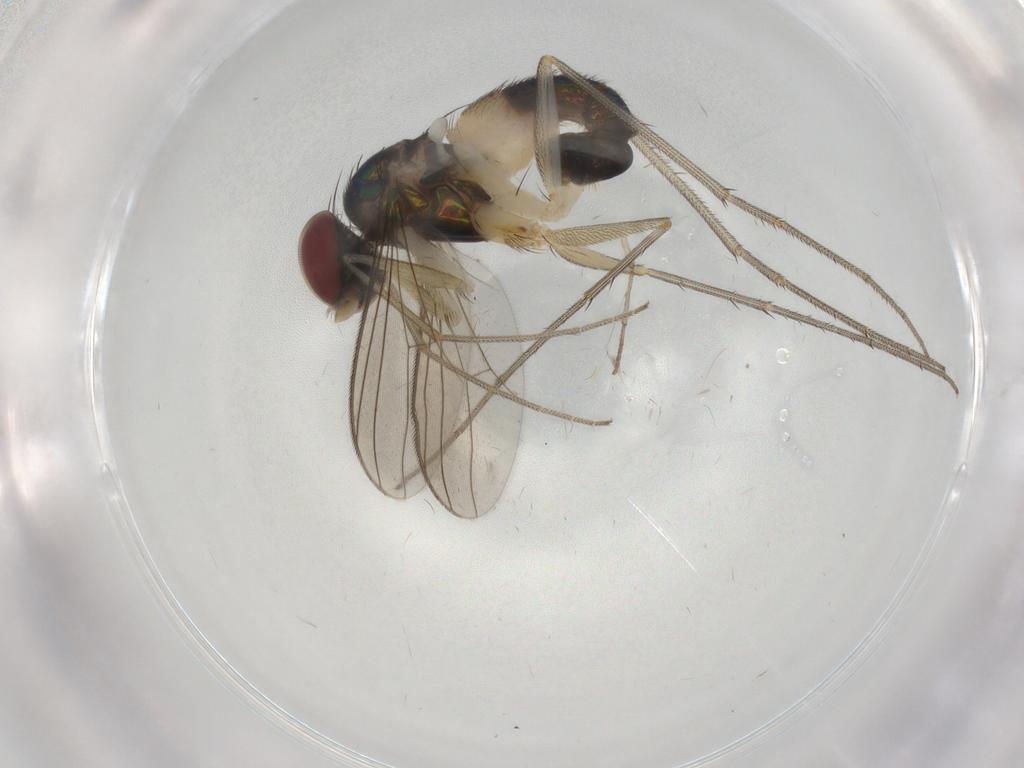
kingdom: Animalia
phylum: Arthropoda
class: Insecta
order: Diptera
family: Dolichopodidae
